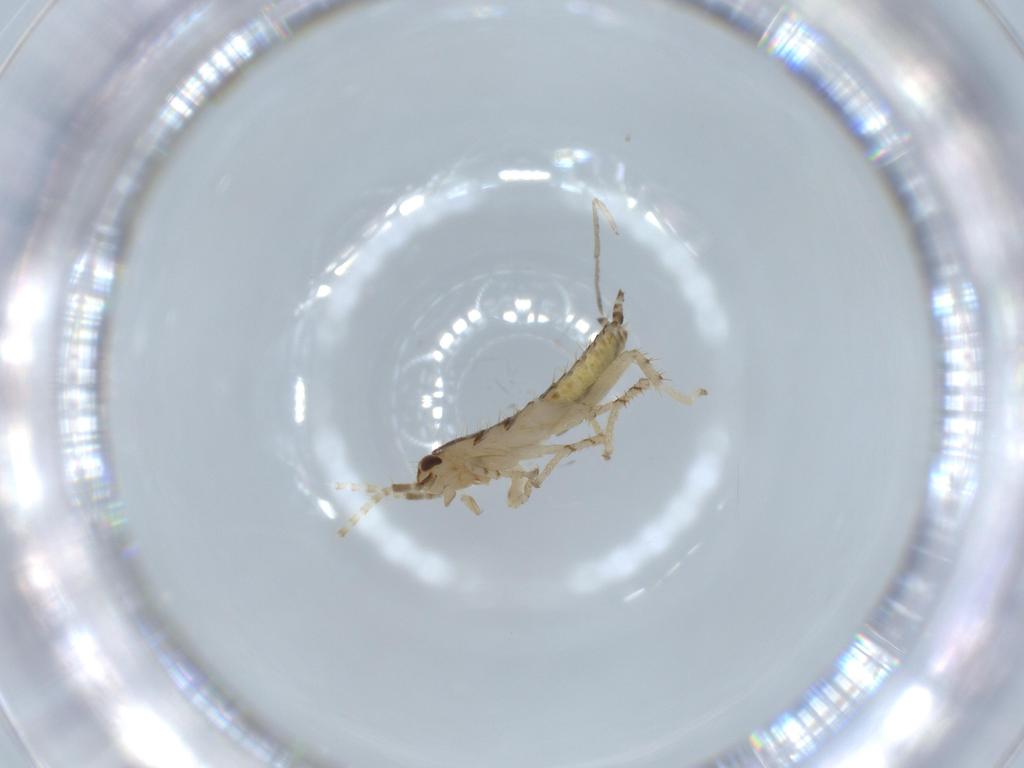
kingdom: Animalia
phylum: Arthropoda
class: Insecta
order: Blattodea
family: Ectobiidae
